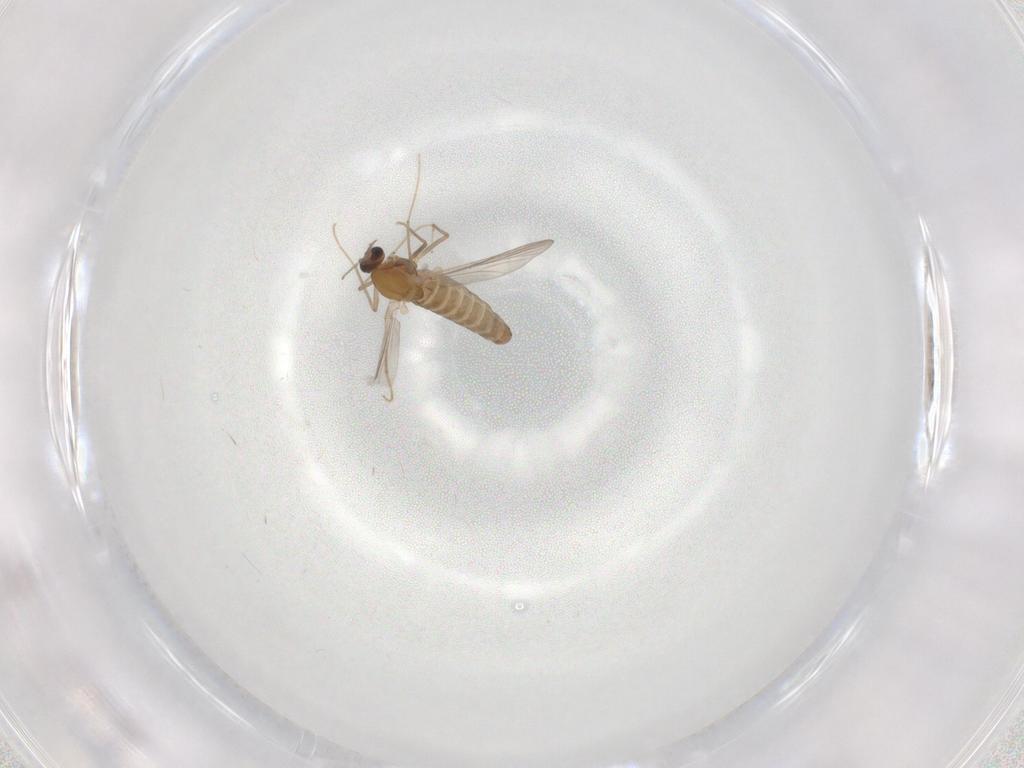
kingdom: Animalia
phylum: Arthropoda
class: Insecta
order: Diptera
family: Chironomidae
